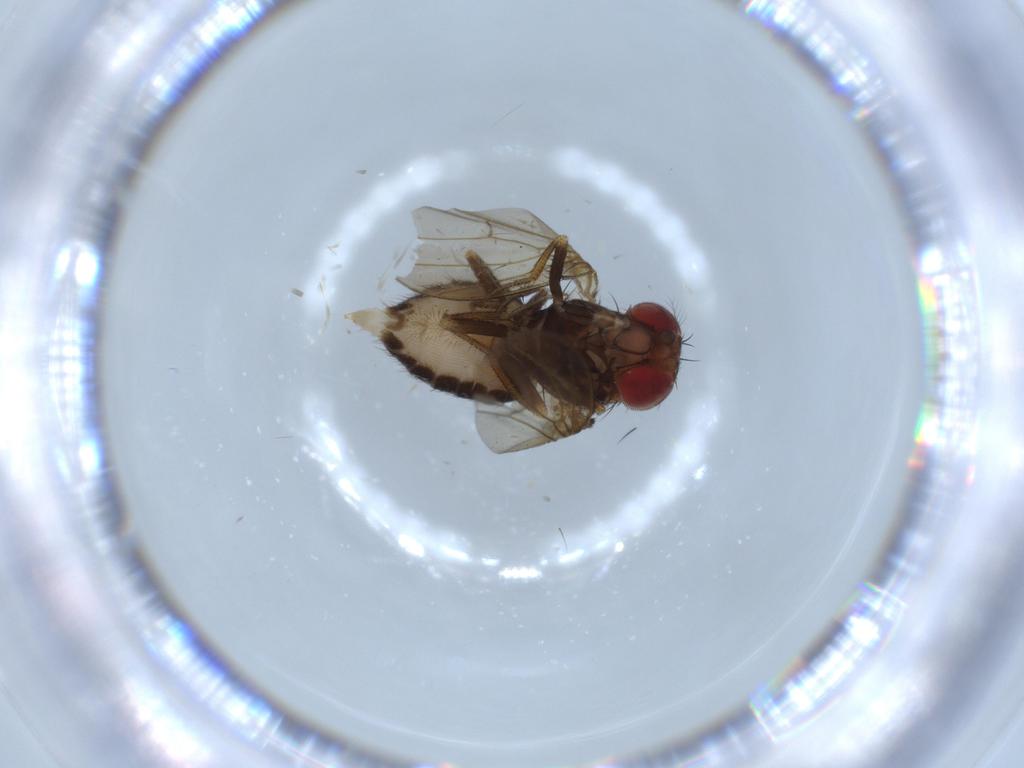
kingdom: Animalia
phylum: Arthropoda
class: Insecta
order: Diptera
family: Drosophilidae
